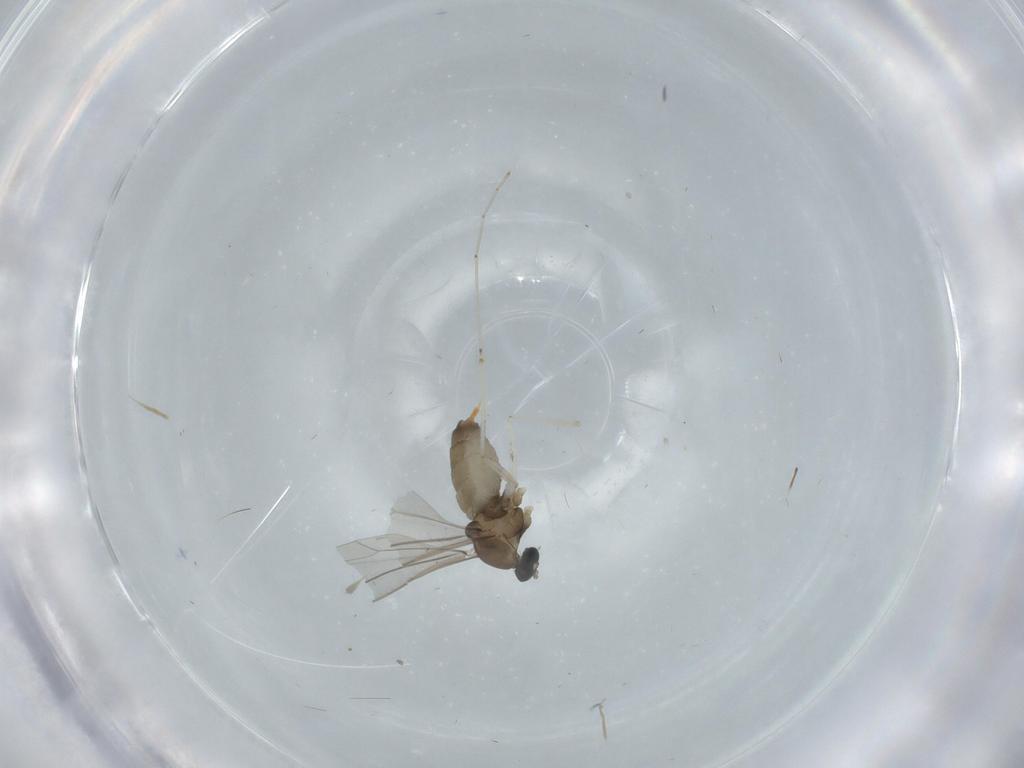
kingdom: Animalia
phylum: Arthropoda
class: Insecta
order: Diptera
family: Cecidomyiidae
